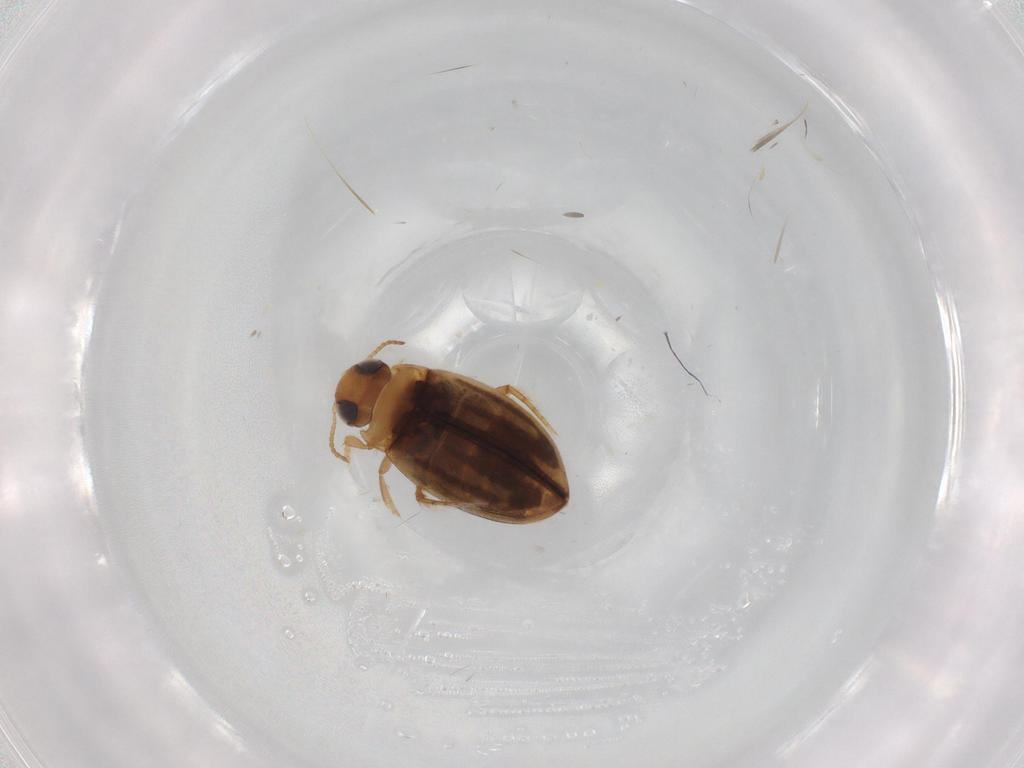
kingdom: Animalia
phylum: Arthropoda
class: Insecta
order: Coleoptera
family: Dytiscidae
